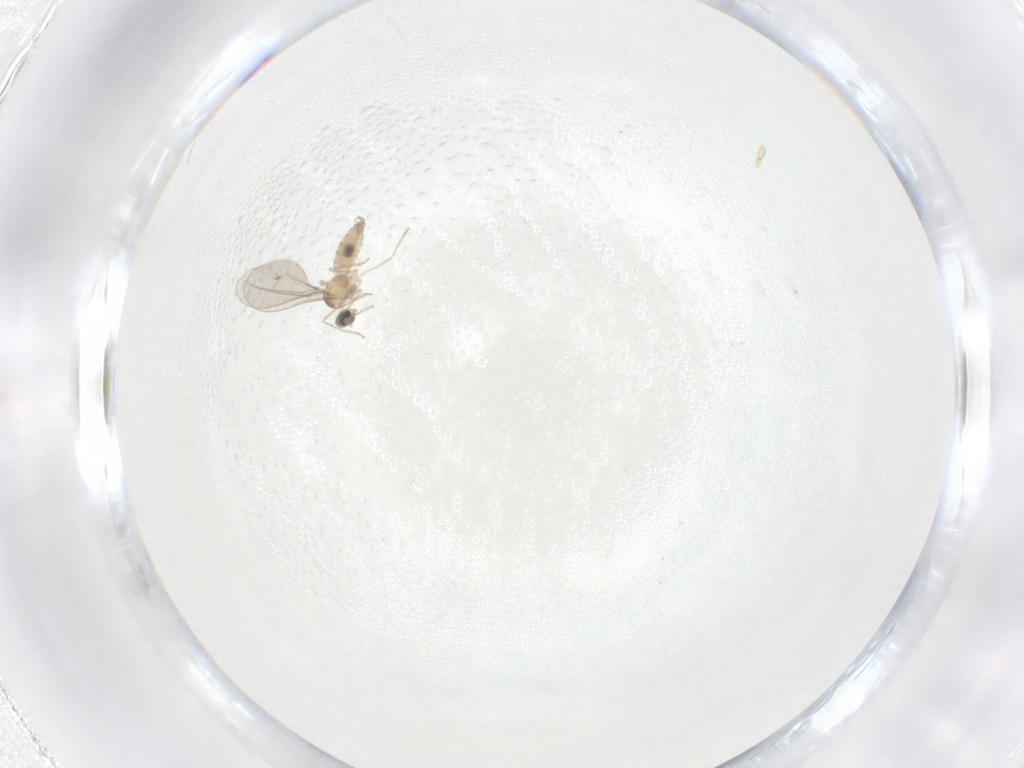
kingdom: Animalia
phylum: Arthropoda
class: Insecta
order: Diptera
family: Cecidomyiidae
